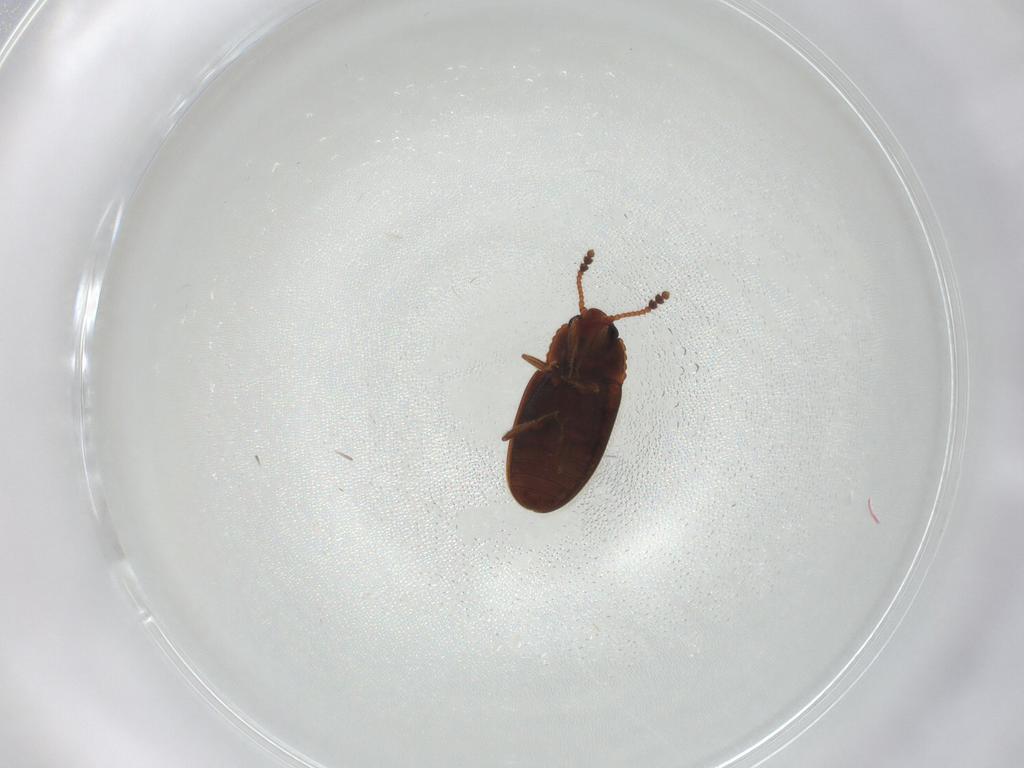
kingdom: Animalia
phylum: Arthropoda
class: Insecta
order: Coleoptera
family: Erotylidae
